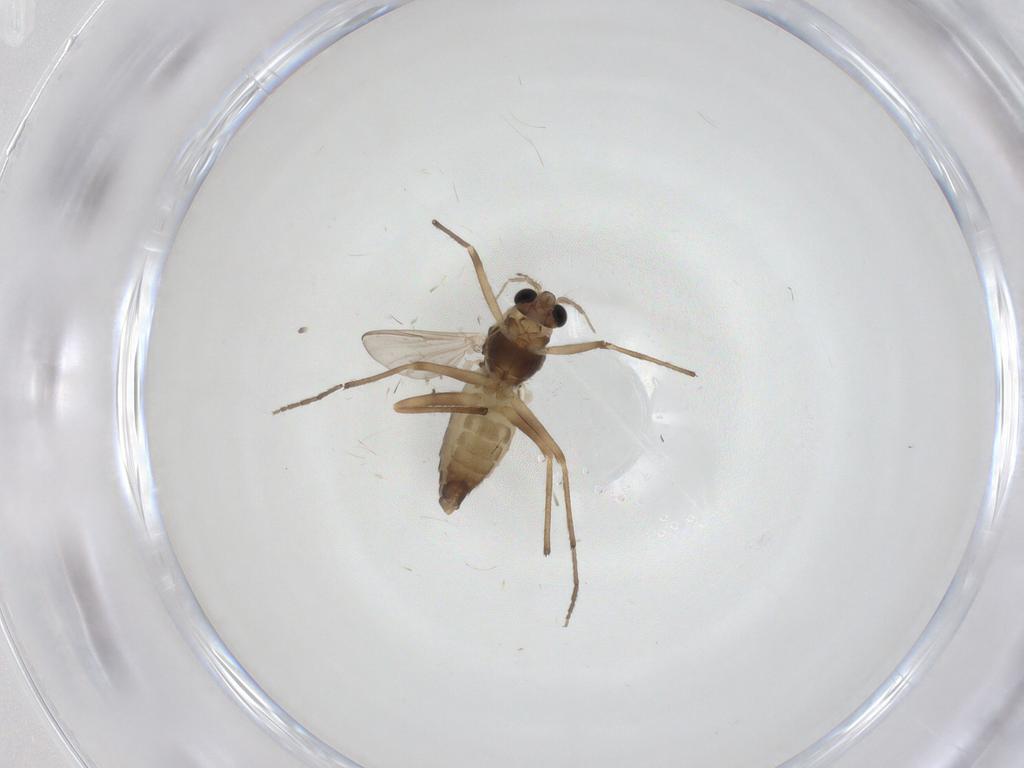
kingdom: Animalia
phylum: Arthropoda
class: Insecta
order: Diptera
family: Chironomidae
